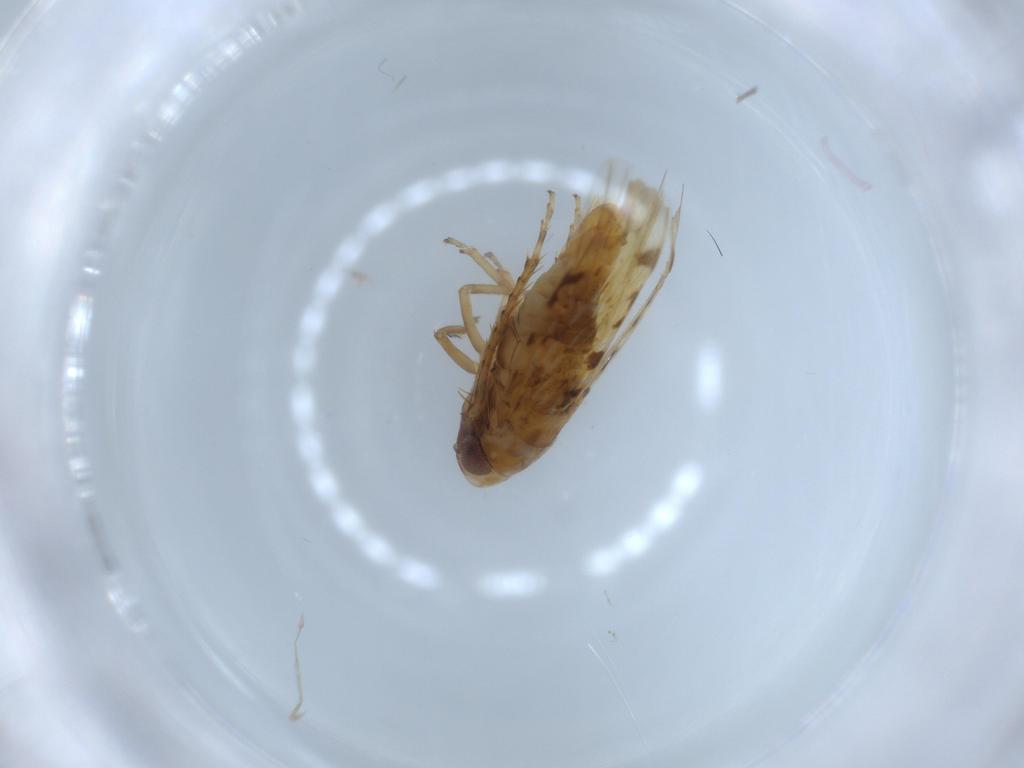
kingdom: Animalia
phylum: Arthropoda
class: Insecta
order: Hemiptera
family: Cicadellidae
